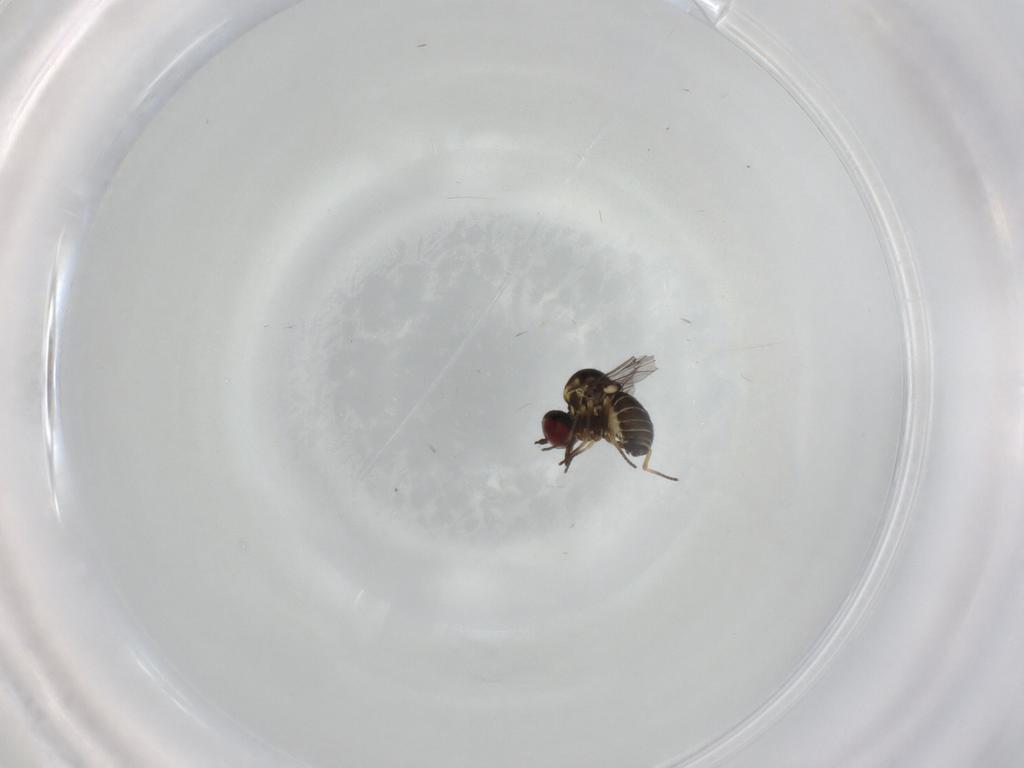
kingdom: Animalia
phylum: Arthropoda
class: Insecta
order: Diptera
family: Bombyliidae
